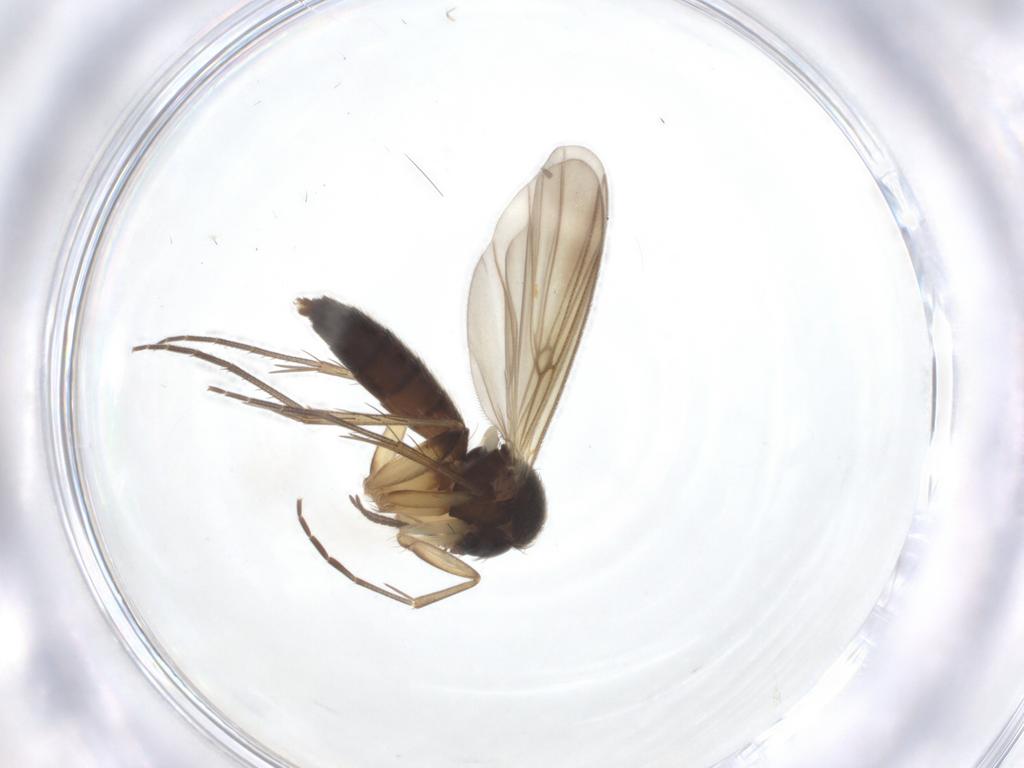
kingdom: Animalia
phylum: Arthropoda
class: Insecta
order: Diptera
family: Mycetophilidae
